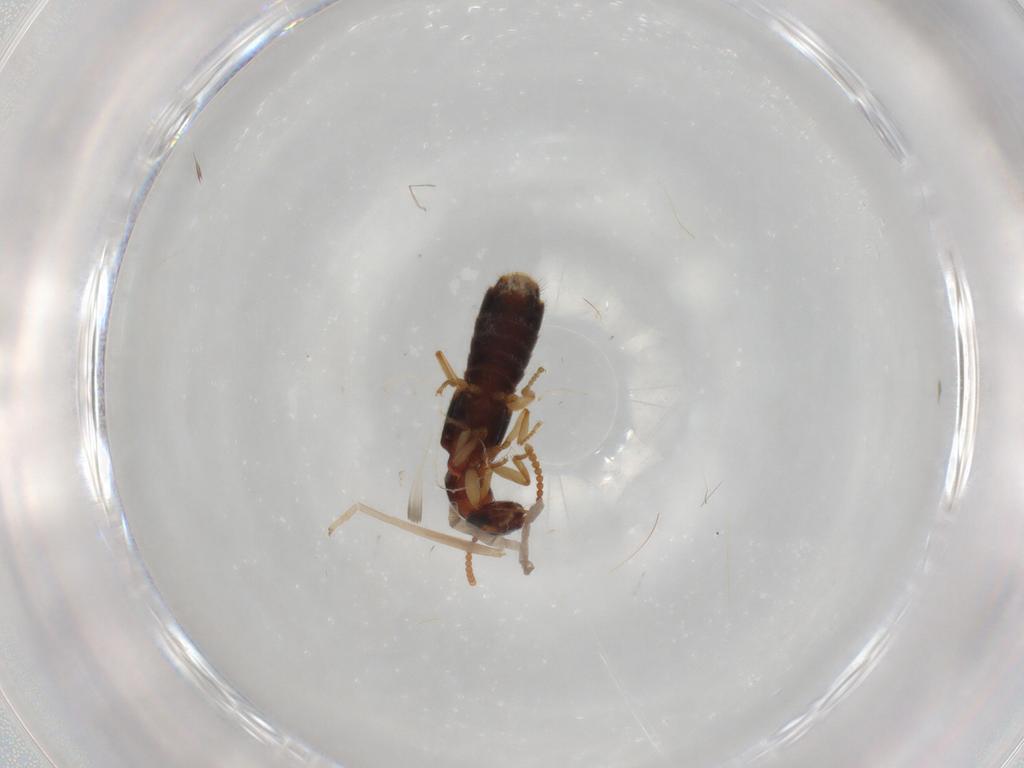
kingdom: Animalia
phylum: Arthropoda
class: Insecta
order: Coleoptera
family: Staphylinidae
